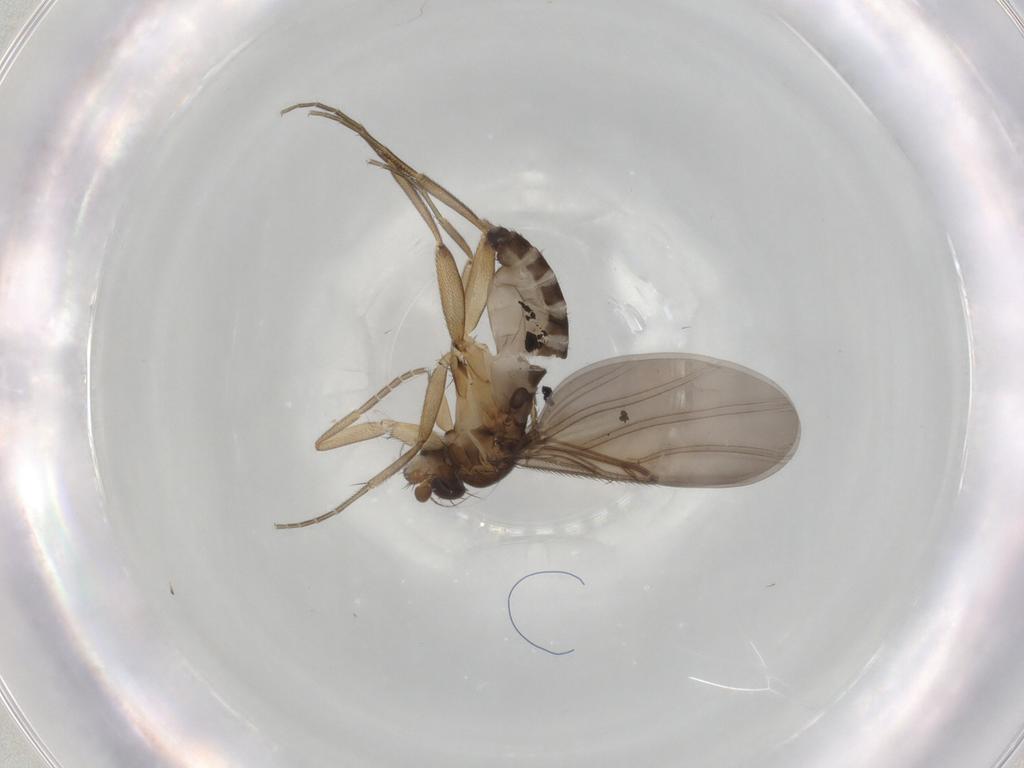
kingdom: Animalia
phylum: Arthropoda
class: Insecta
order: Diptera
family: Phoridae
